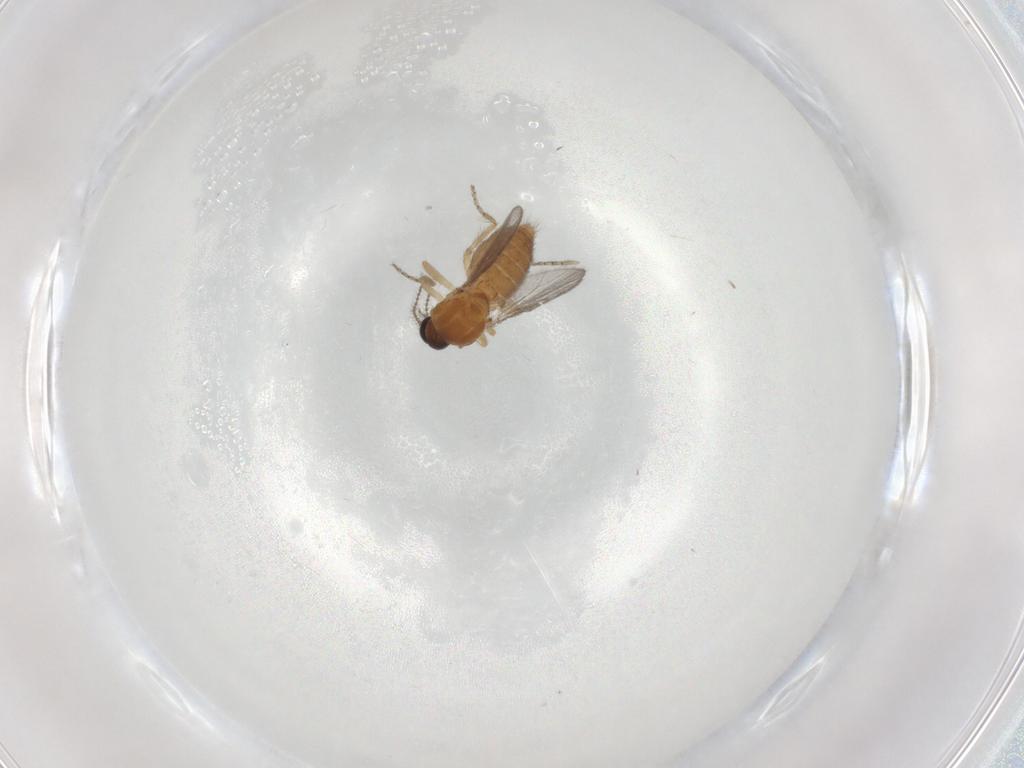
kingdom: Animalia
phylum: Arthropoda
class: Insecta
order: Diptera
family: Ceratopogonidae
